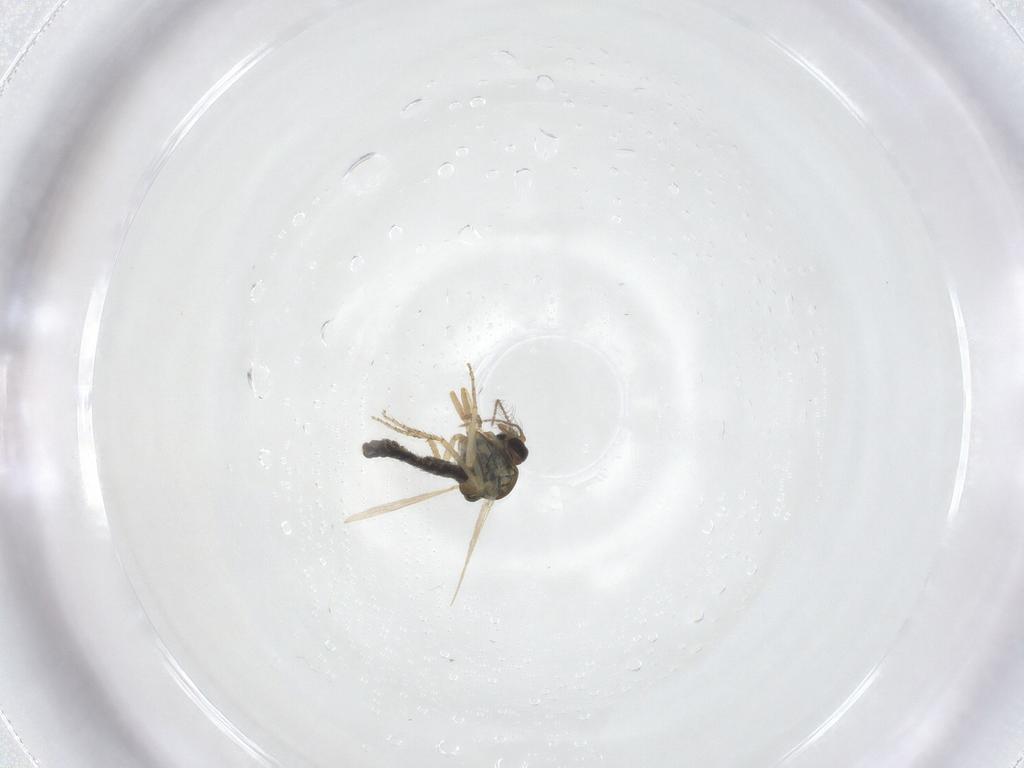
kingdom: Animalia
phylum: Arthropoda
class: Insecta
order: Diptera
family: Ceratopogonidae
